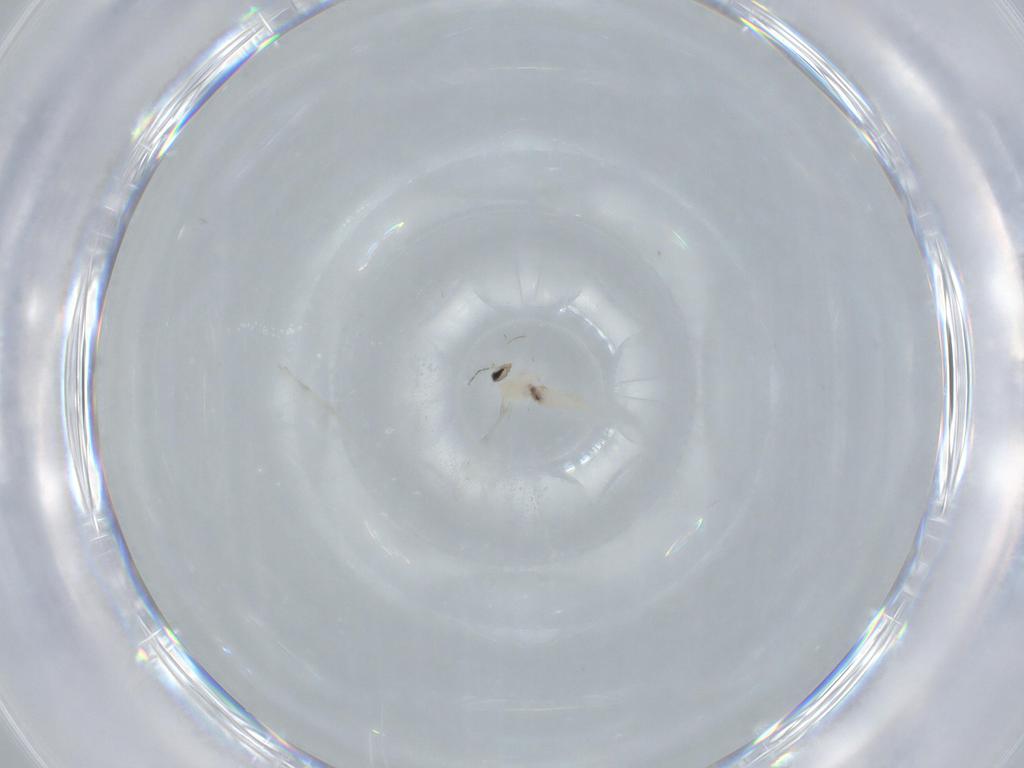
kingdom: Animalia
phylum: Arthropoda
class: Insecta
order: Diptera
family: Cecidomyiidae
